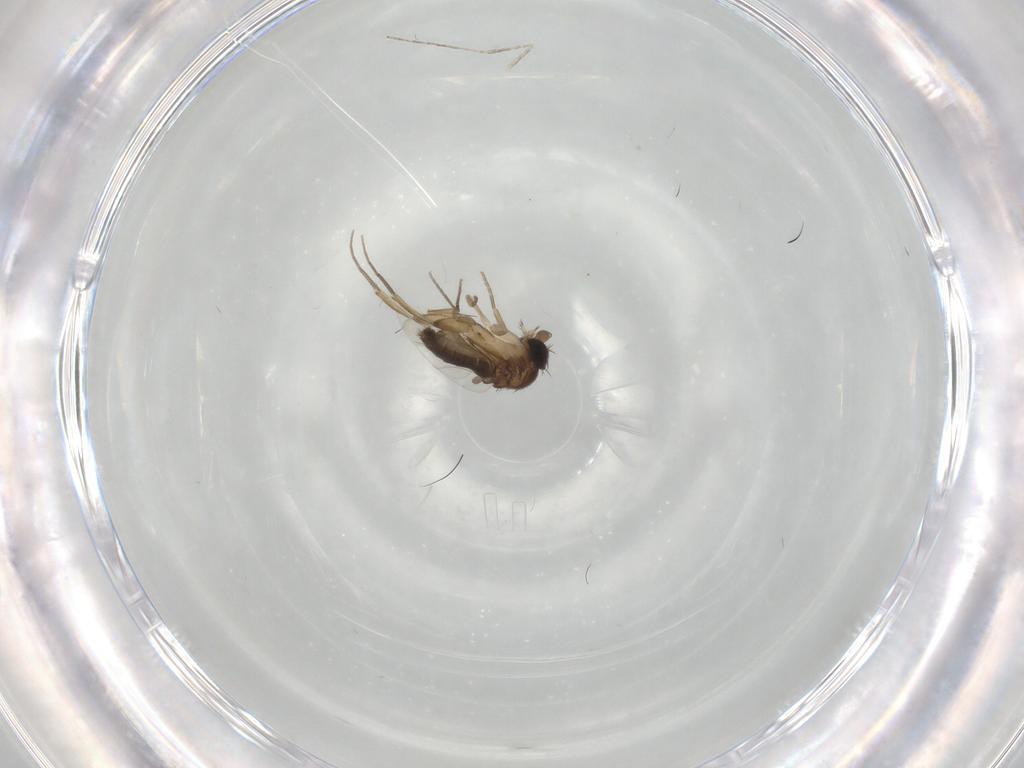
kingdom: Animalia
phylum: Arthropoda
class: Insecta
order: Diptera
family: Phoridae
